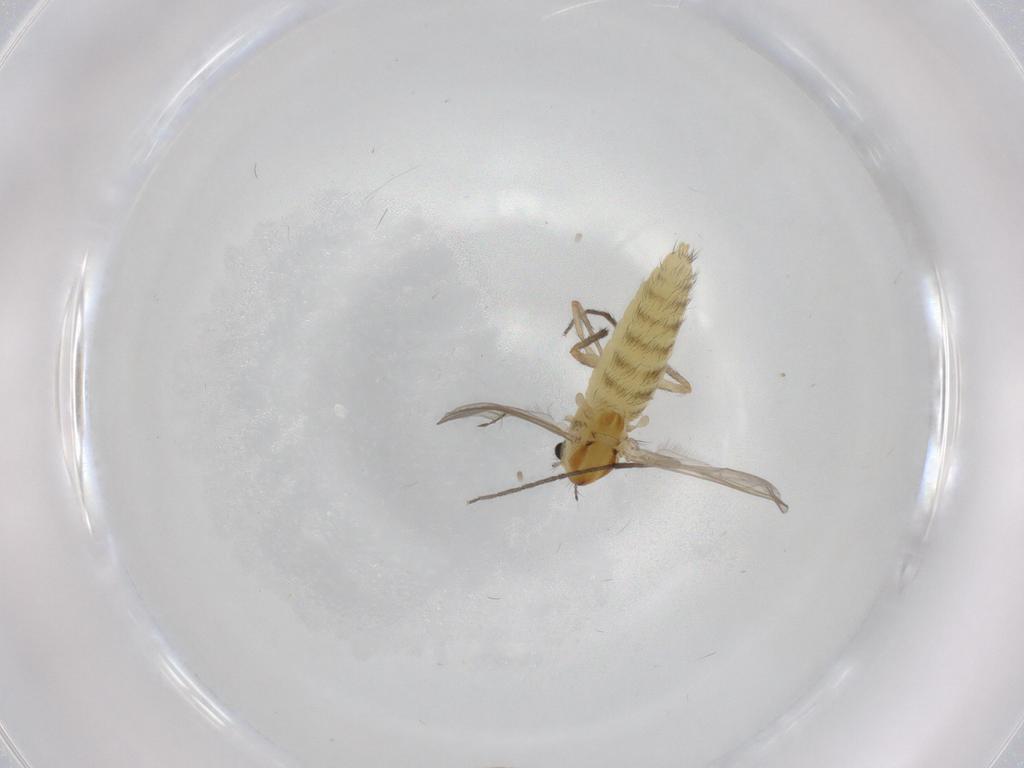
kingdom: Animalia
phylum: Arthropoda
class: Insecta
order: Diptera
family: Chironomidae
